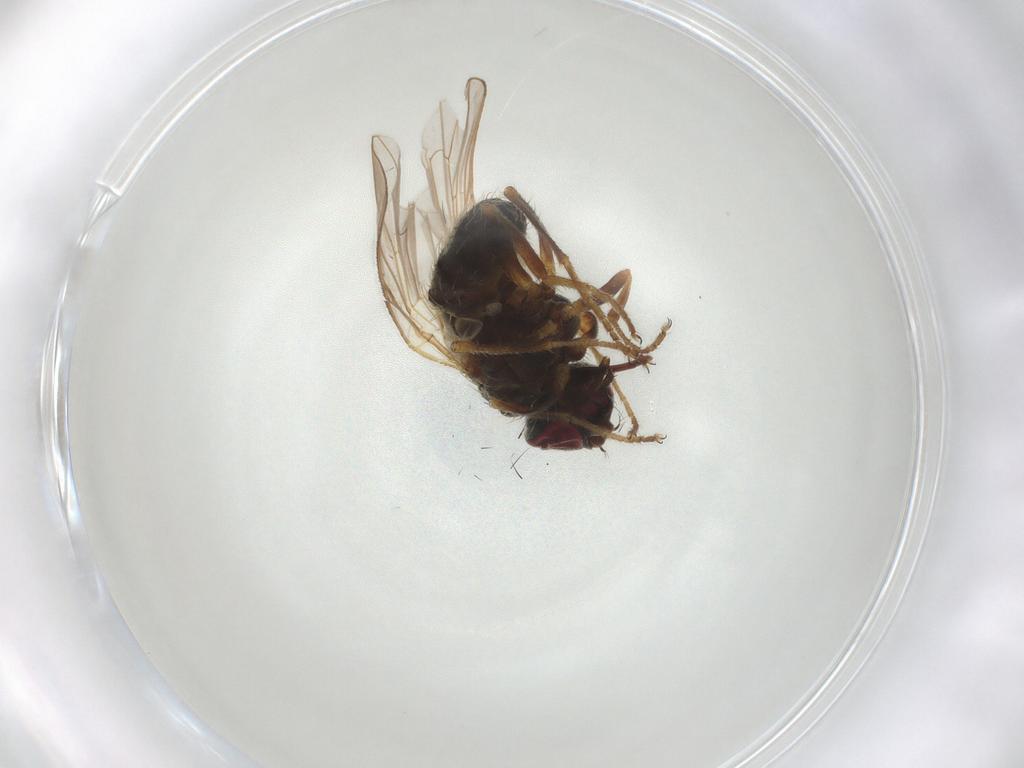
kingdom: Animalia
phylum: Arthropoda
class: Insecta
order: Diptera
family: Muscidae
